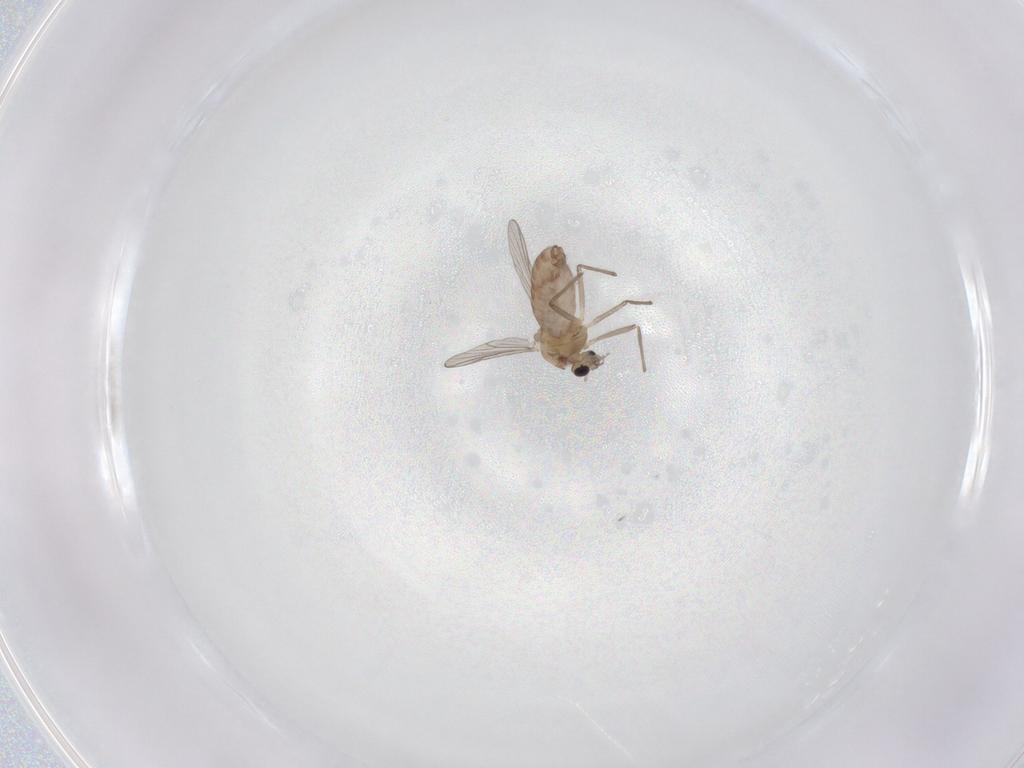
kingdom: Animalia
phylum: Arthropoda
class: Insecta
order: Diptera
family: Chironomidae
